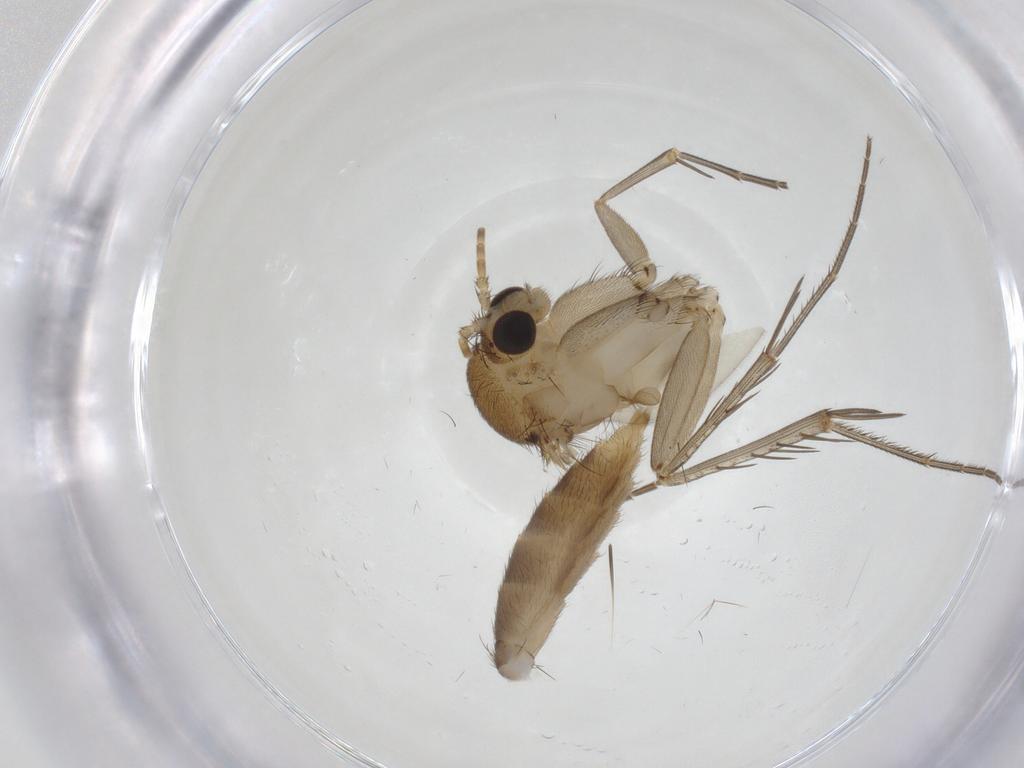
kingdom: Animalia
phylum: Arthropoda
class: Insecta
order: Diptera
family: Mycetophilidae
